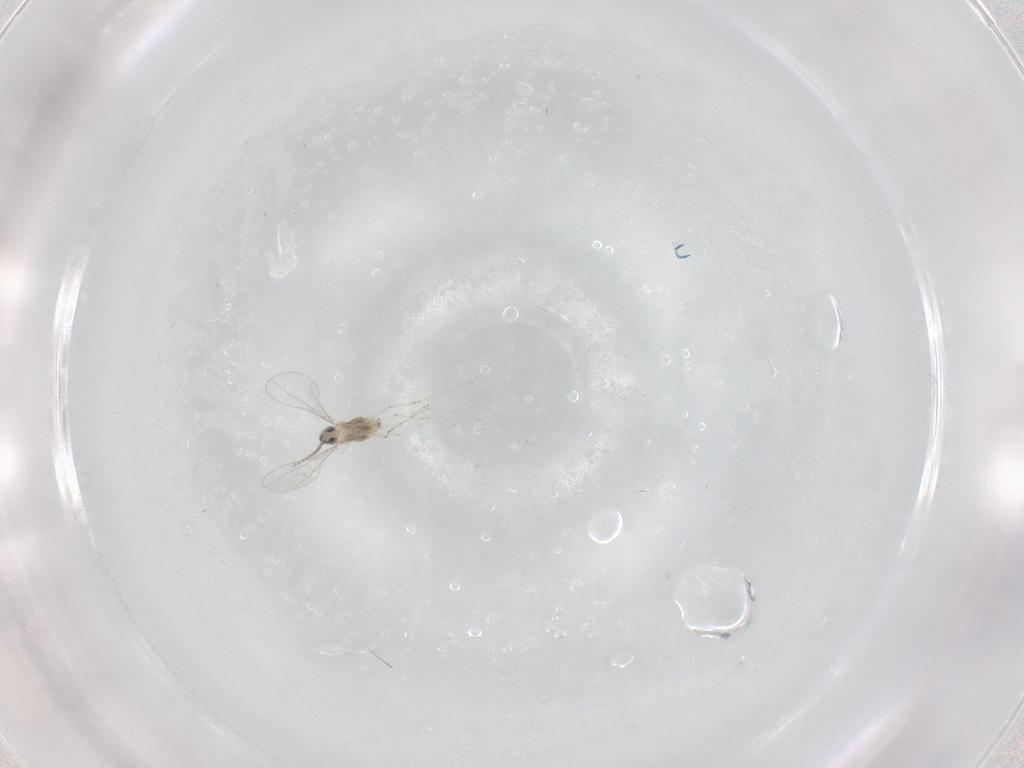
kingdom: Animalia
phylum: Arthropoda
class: Insecta
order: Diptera
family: Cecidomyiidae
